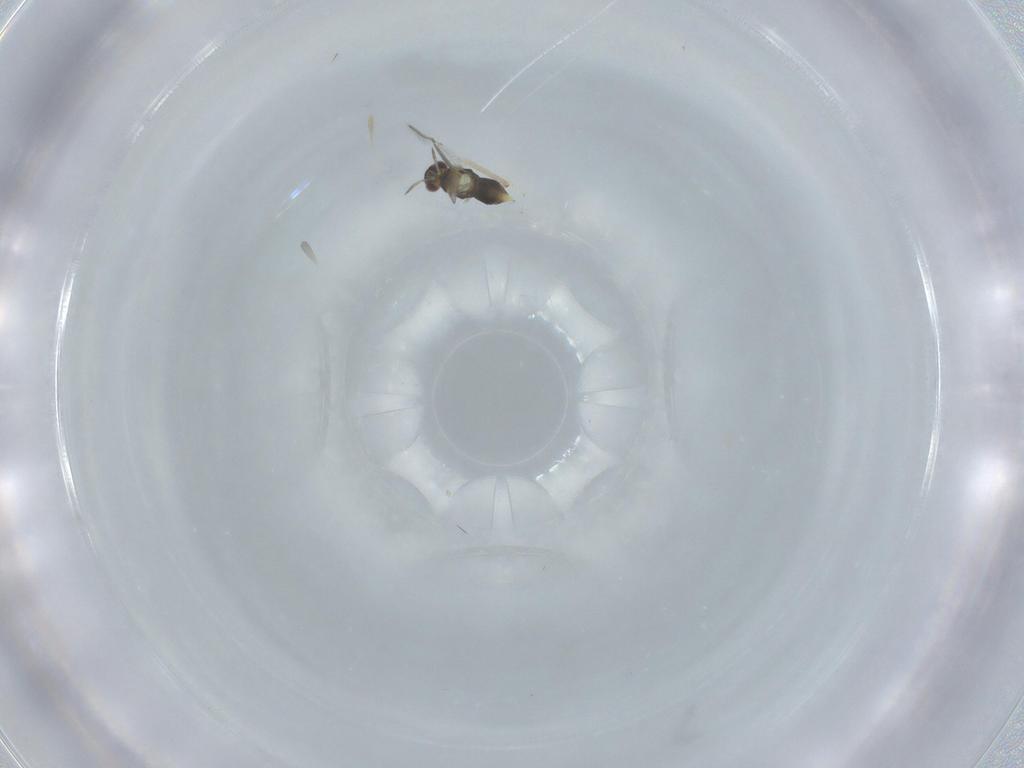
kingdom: Animalia
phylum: Arthropoda
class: Insecta
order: Hymenoptera
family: Aphelinidae
